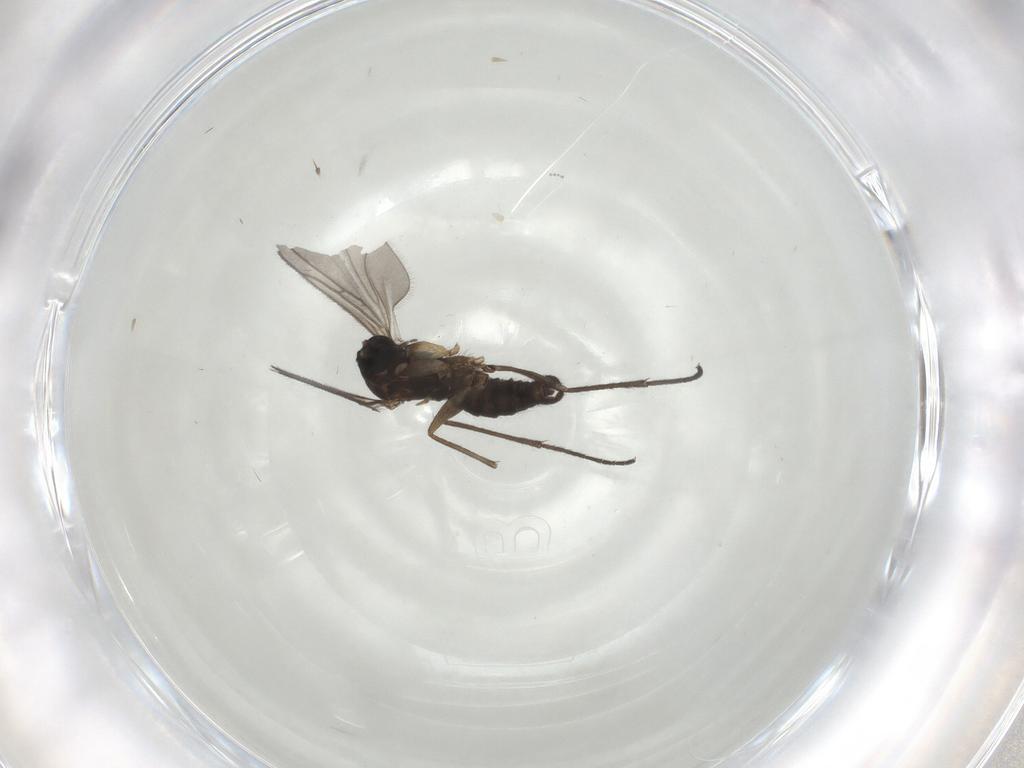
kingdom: Animalia
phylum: Arthropoda
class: Insecta
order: Diptera
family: Sciaridae
